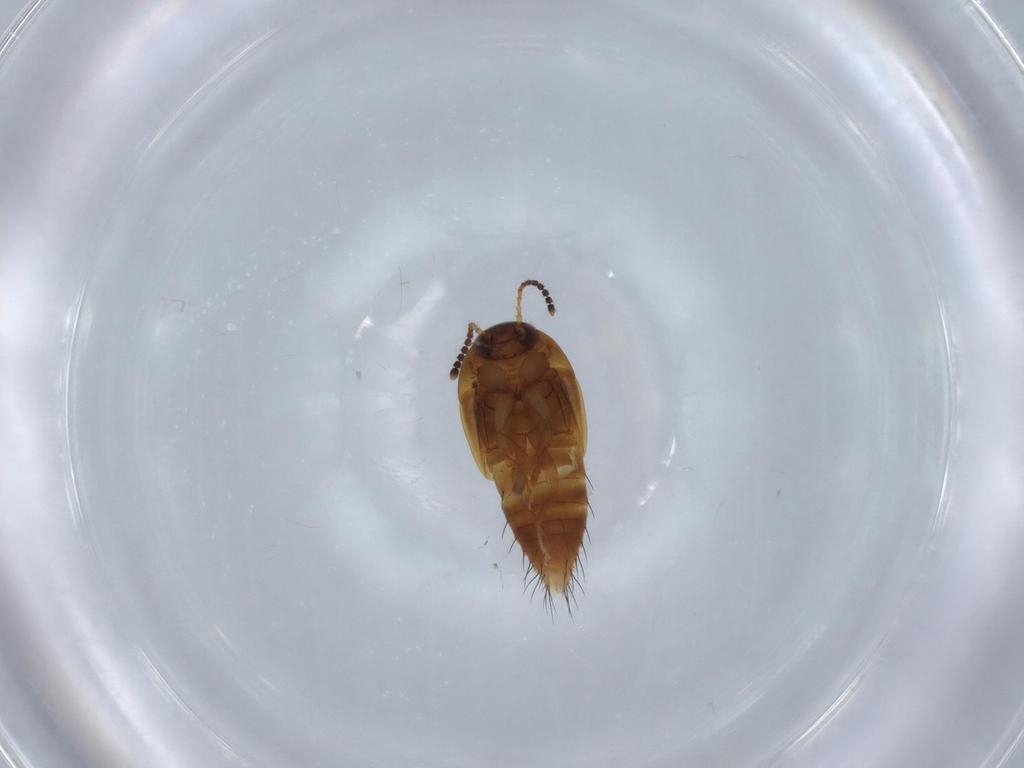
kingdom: Animalia
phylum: Arthropoda
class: Insecta
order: Coleoptera
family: Staphylinidae
